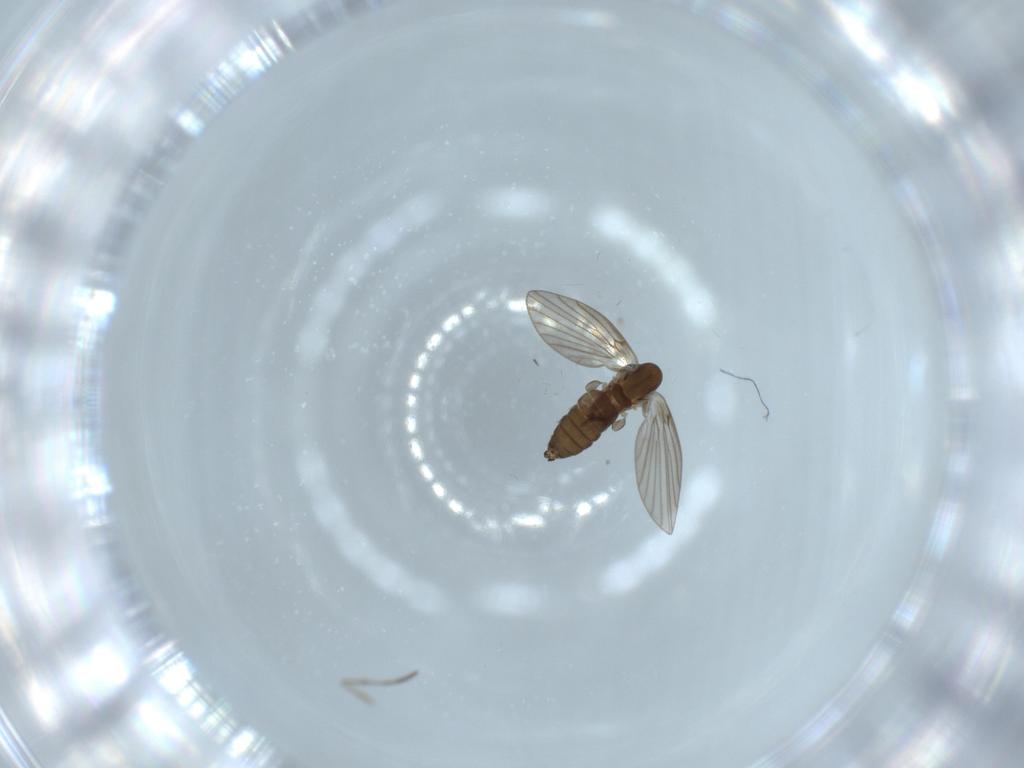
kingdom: Animalia
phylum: Arthropoda
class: Insecta
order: Diptera
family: Psychodidae
